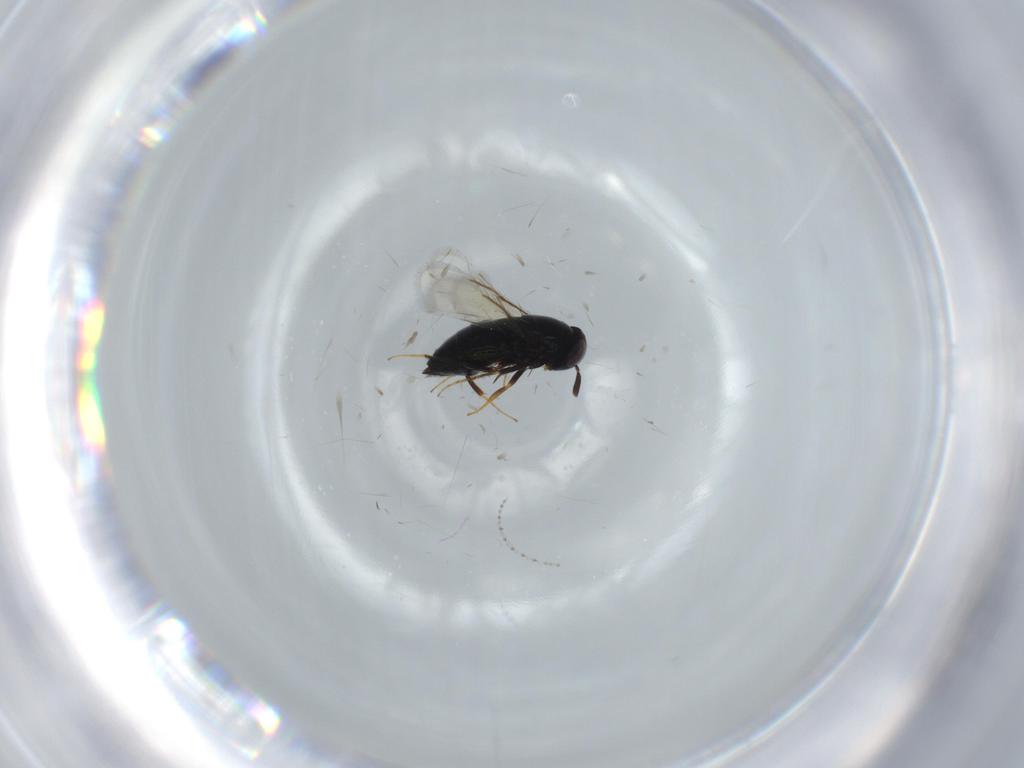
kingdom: Animalia
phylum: Arthropoda
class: Insecta
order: Hymenoptera
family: Signiphoridae
